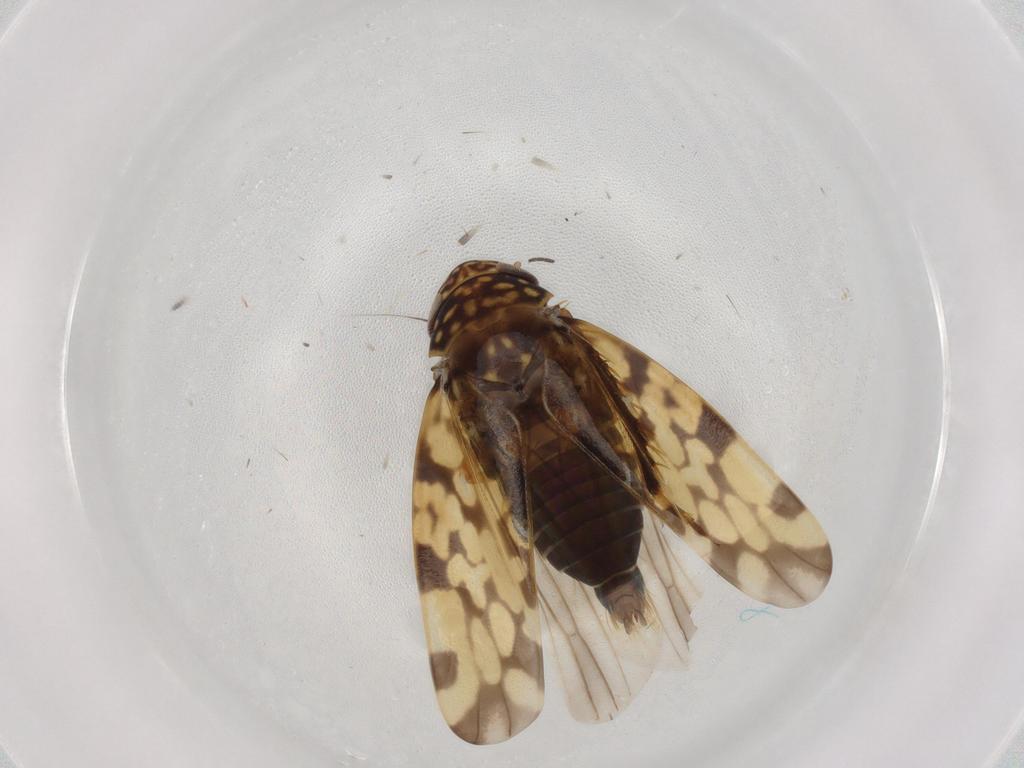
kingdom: Animalia
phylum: Arthropoda
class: Insecta
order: Hemiptera
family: Cicadellidae
